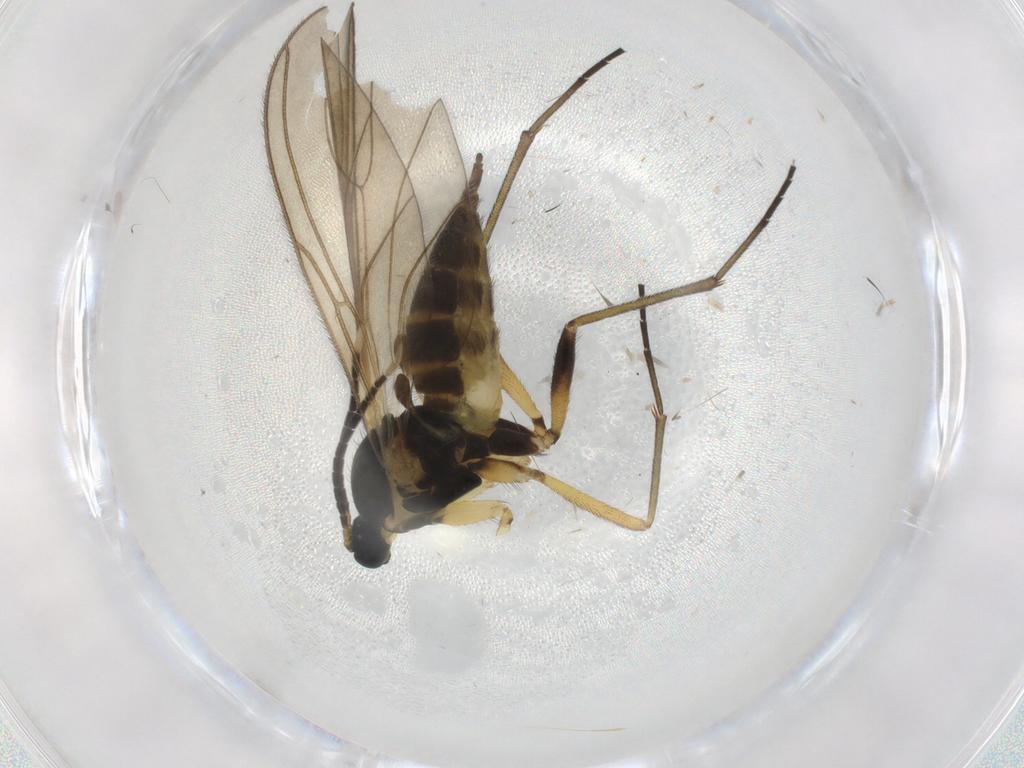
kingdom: Animalia
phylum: Arthropoda
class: Insecta
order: Diptera
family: Sciaridae
